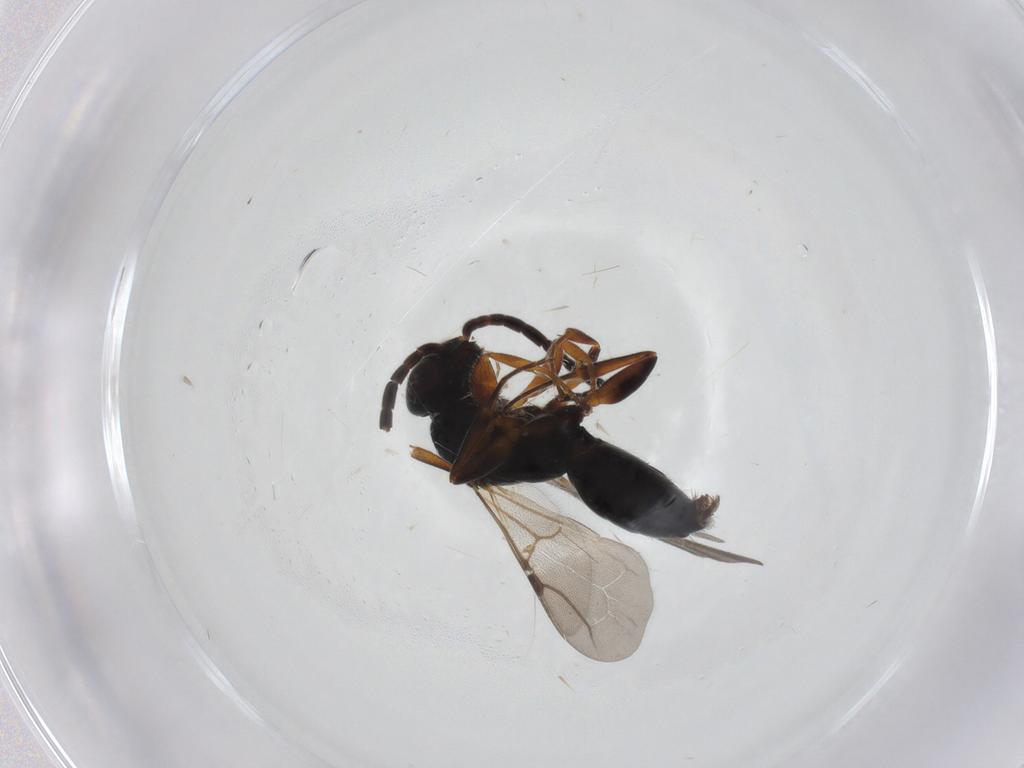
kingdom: Animalia
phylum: Arthropoda
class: Insecta
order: Hymenoptera
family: Bethylidae
